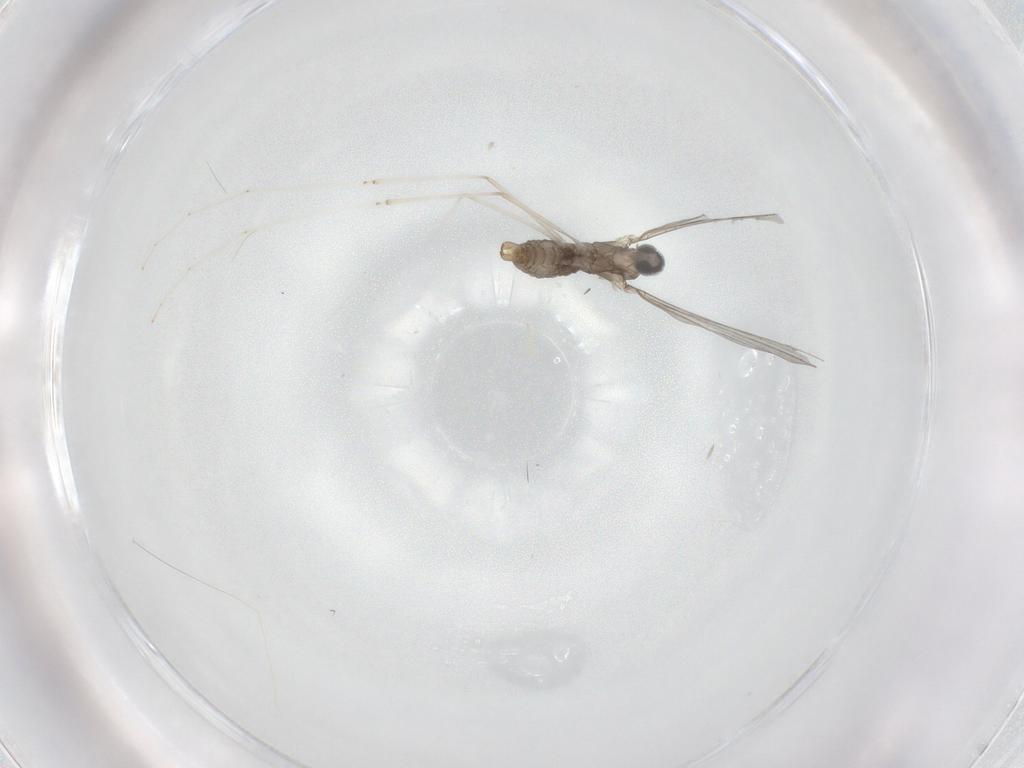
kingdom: Animalia
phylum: Arthropoda
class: Insecta
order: Diptera
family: Cecidomyiidae
